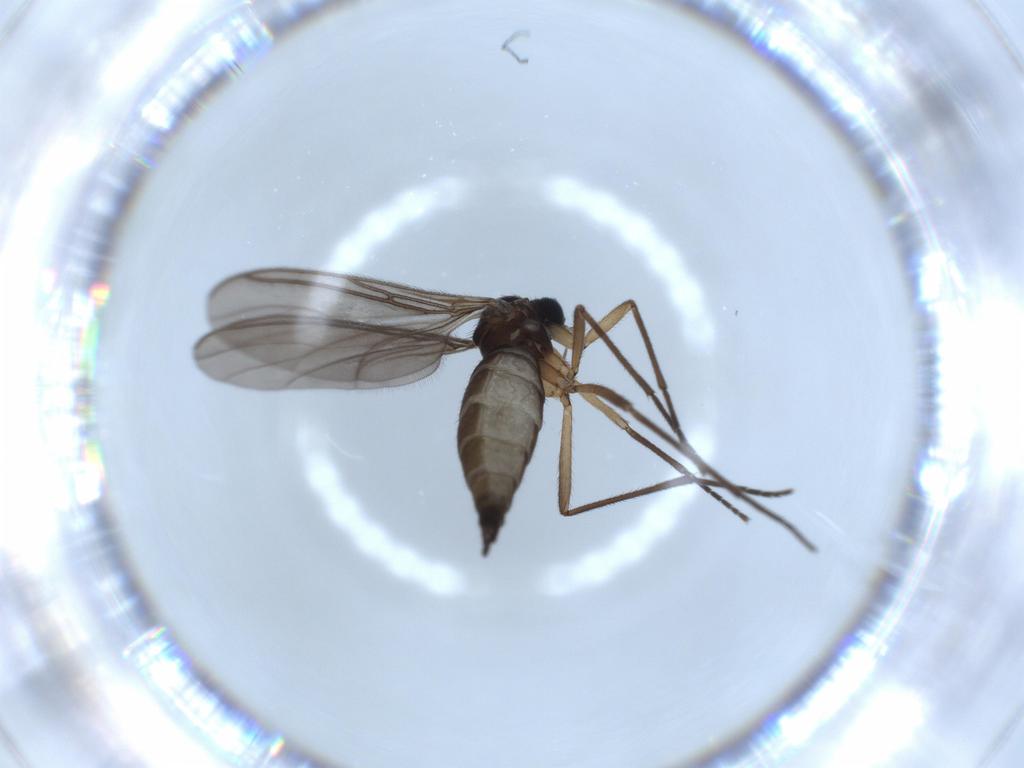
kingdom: Animalia
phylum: Arthropoda
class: Insecta
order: Diptera
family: Sciaridae
